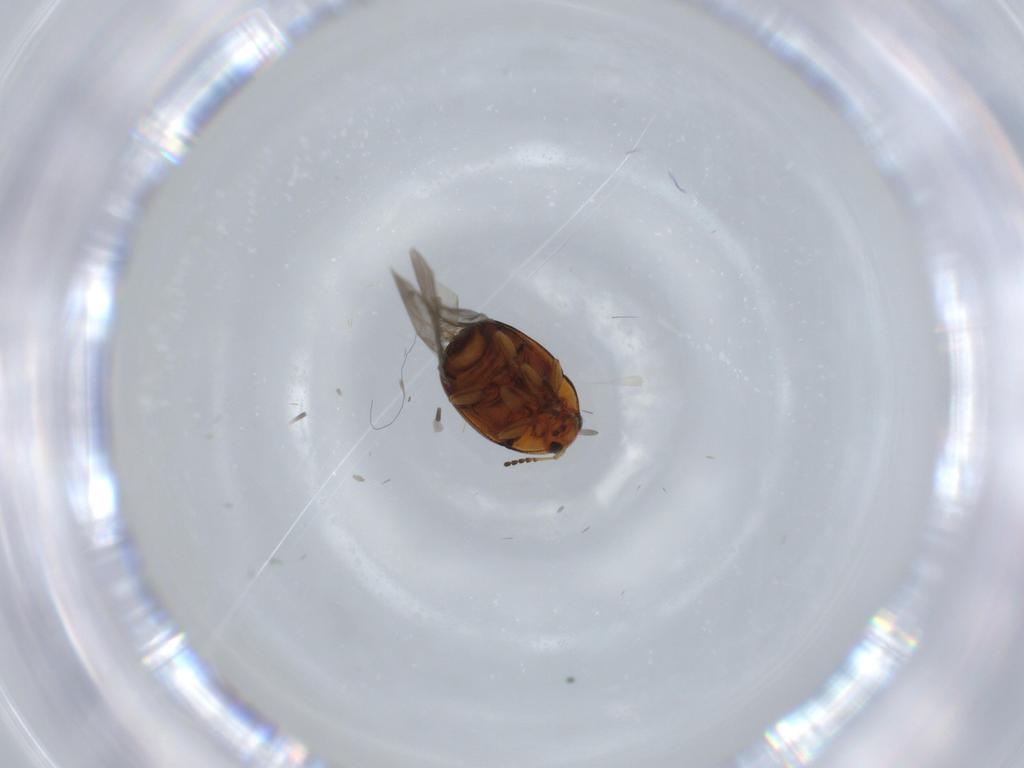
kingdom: Animalia
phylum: Arthropoda
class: Insecta
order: Coleoptera
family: Chrysomelidae
